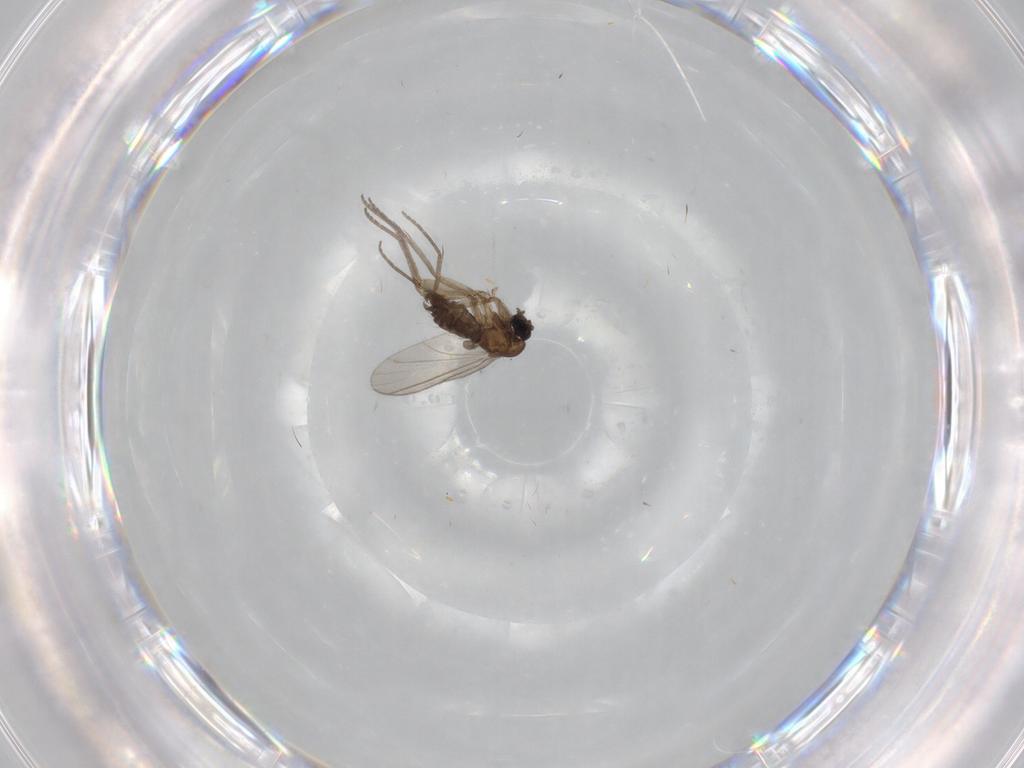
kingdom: Animalia
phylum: Arthropoda
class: Insecta
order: Diptera
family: Sciaridae
